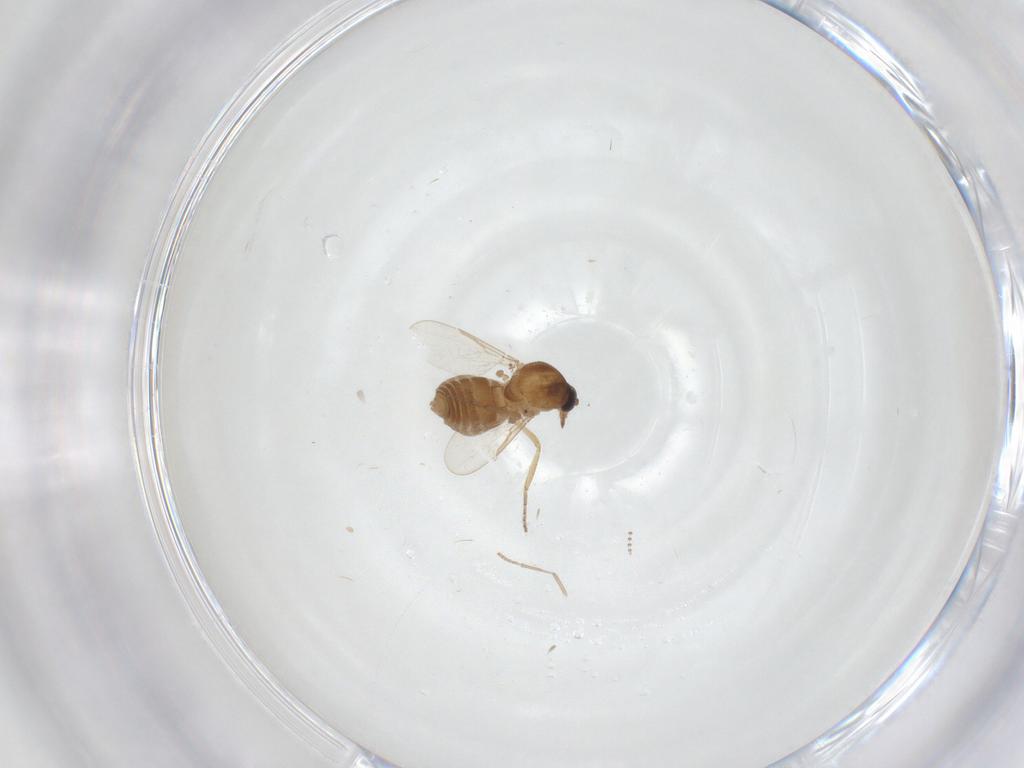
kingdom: Animalia
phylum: Arthropoda
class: Insecta
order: Diptera
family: Ceratopogonidae
